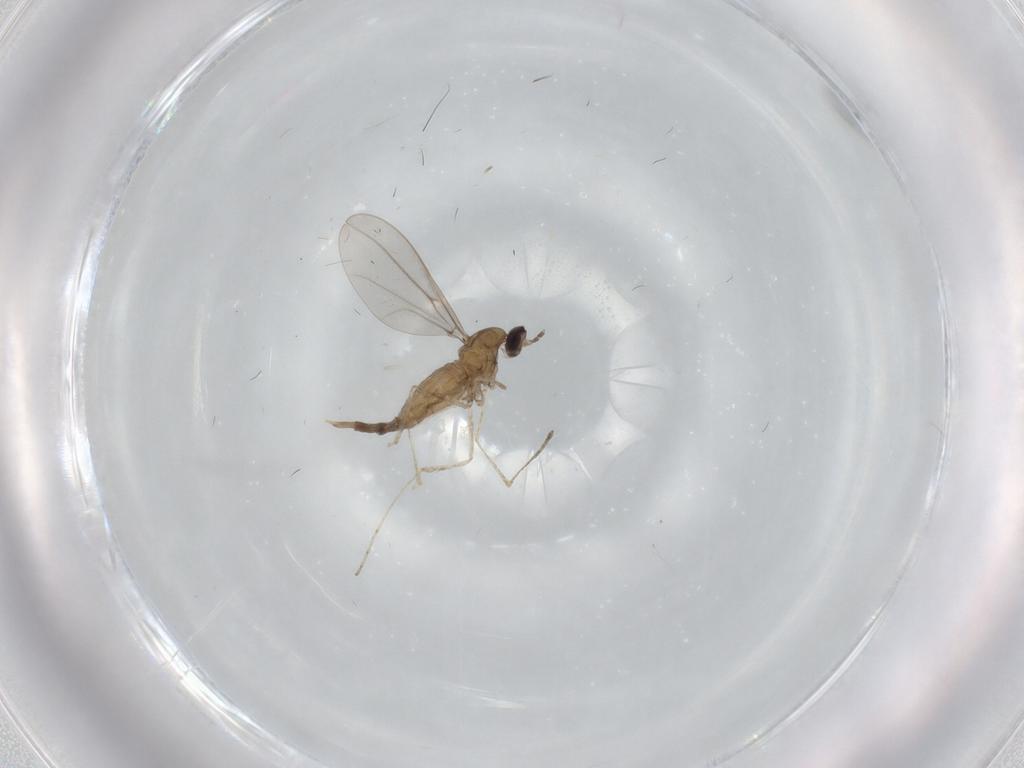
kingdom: Animalia
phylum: Arthropoda
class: Insecta
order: Diptera
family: Cecidomyiidae
